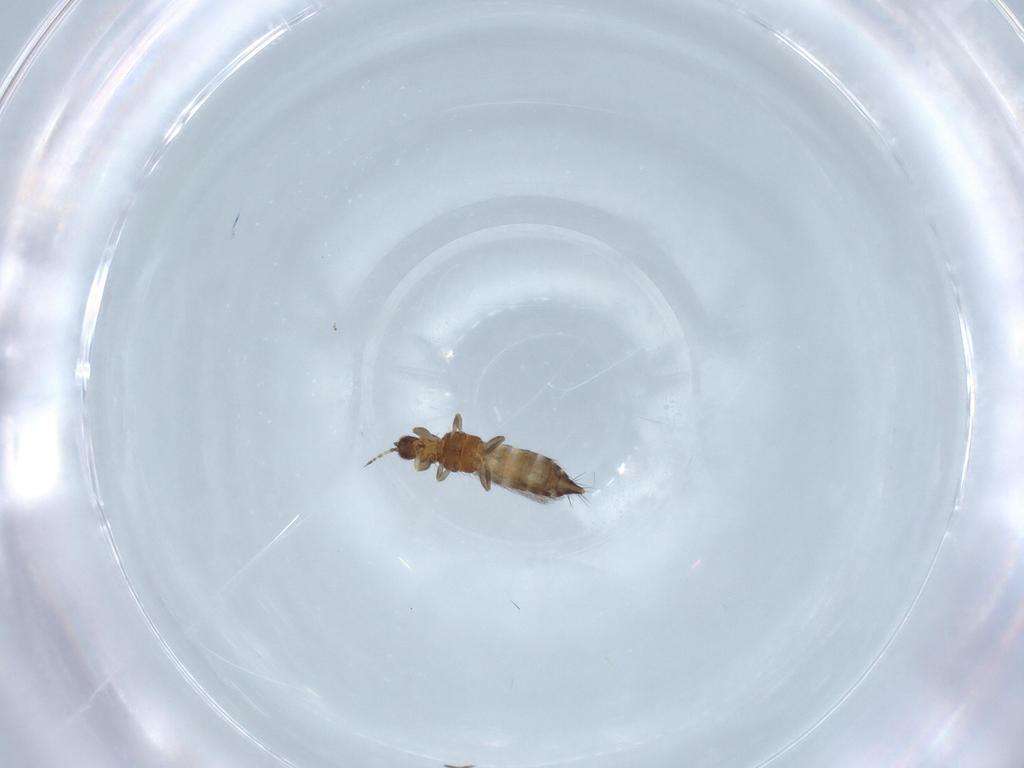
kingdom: Animalia
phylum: Arthropoda
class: Insecta
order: Thysanoptera
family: Thripidae
